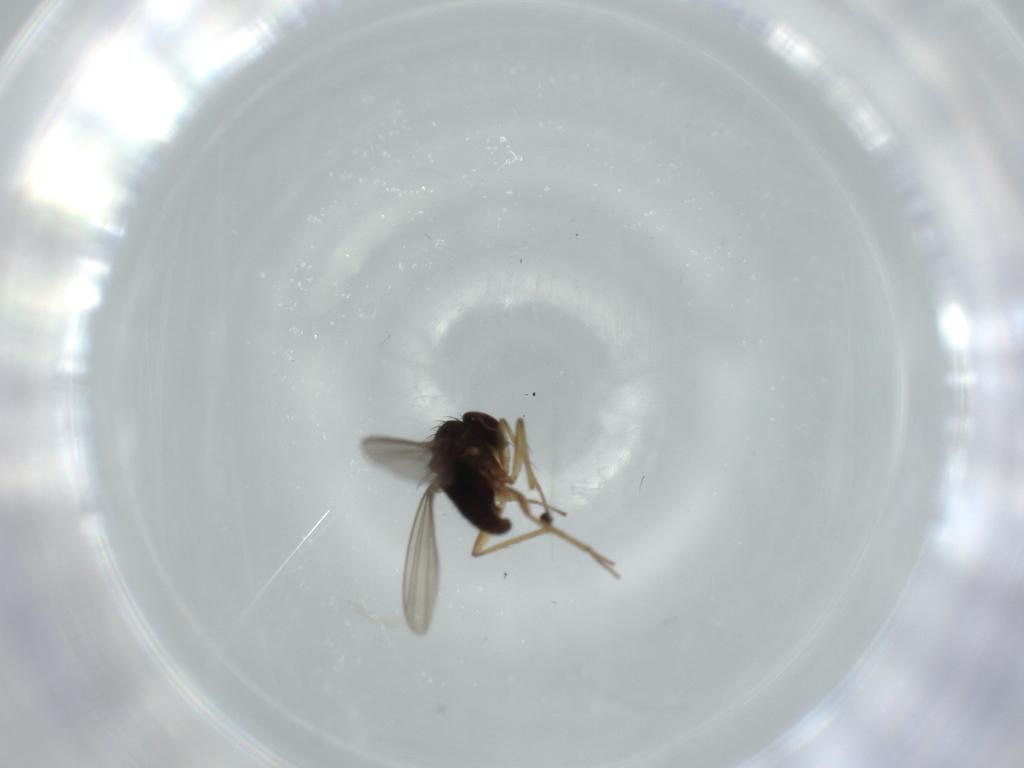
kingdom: Animalia
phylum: Arthropoda
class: Insecta
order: Diptera
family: Dolichopodidae
